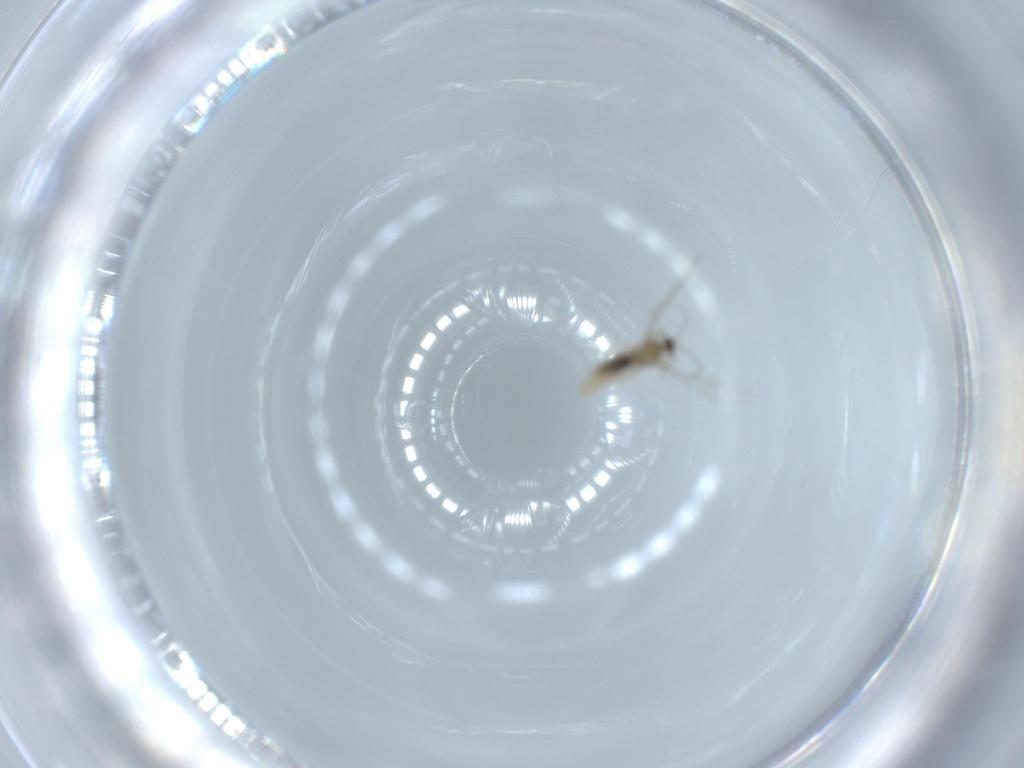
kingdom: Animalia
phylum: Arthropoda
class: Insecta
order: Diptera
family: Cecidomyiidae
